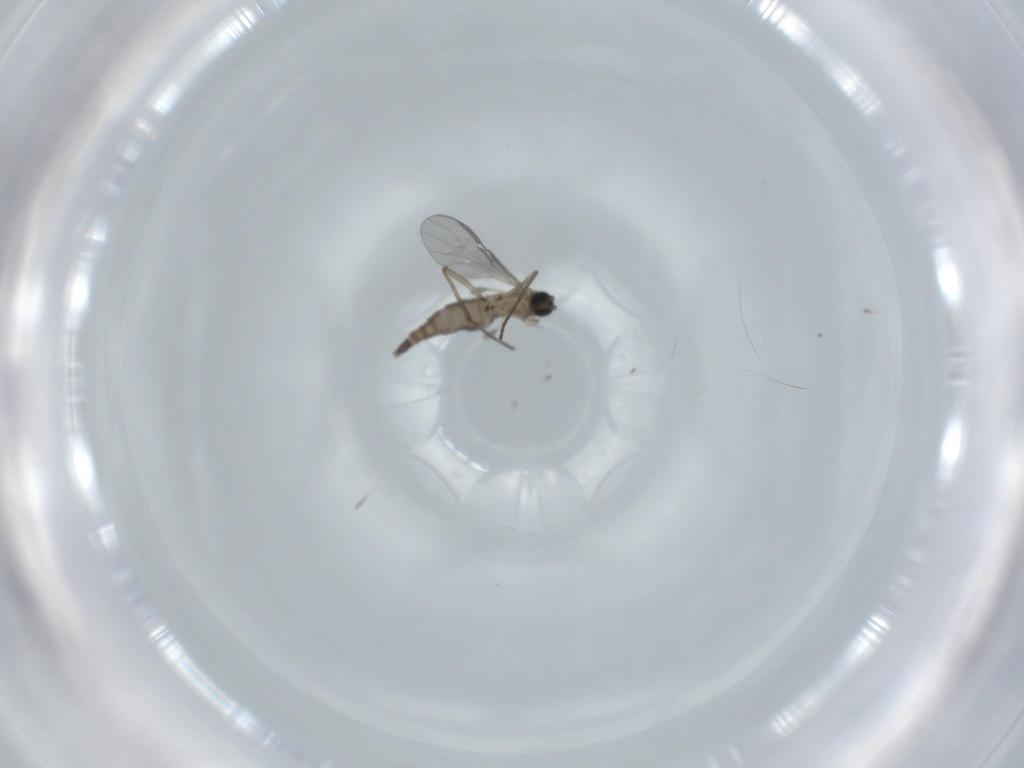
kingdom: Animalia
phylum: Arthropoda
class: Insecta
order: Diptera
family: Sciaridae
